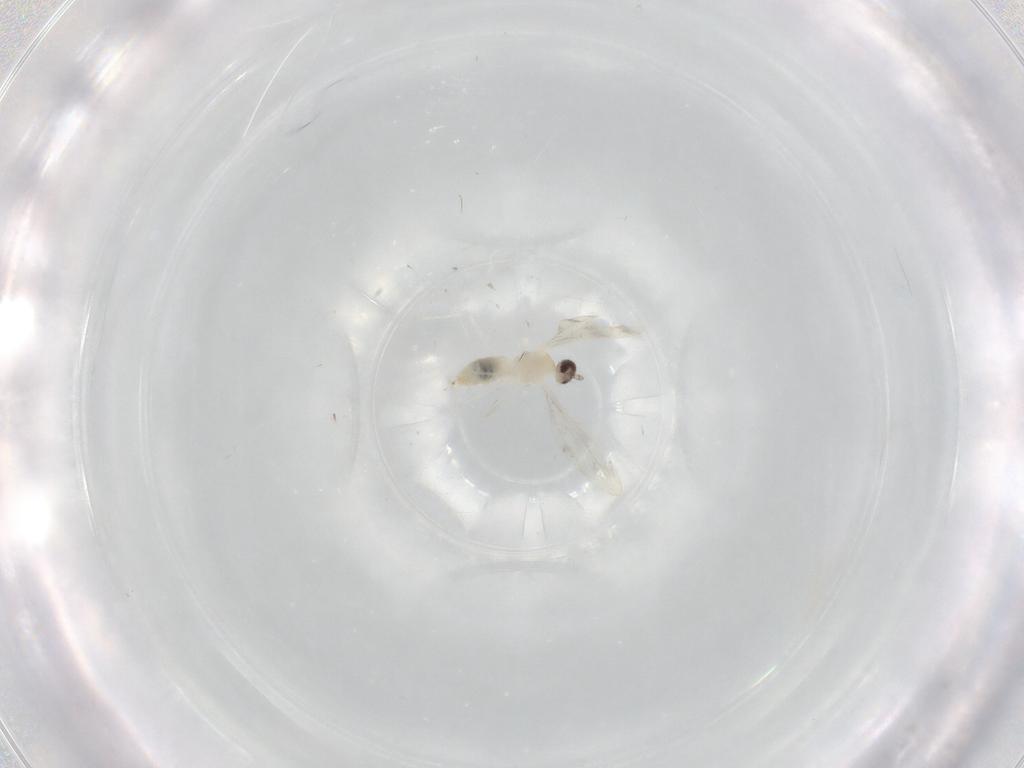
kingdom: Animalia
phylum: Arthropoda
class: Insecta
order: Diptera
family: Cecidomyiidae
